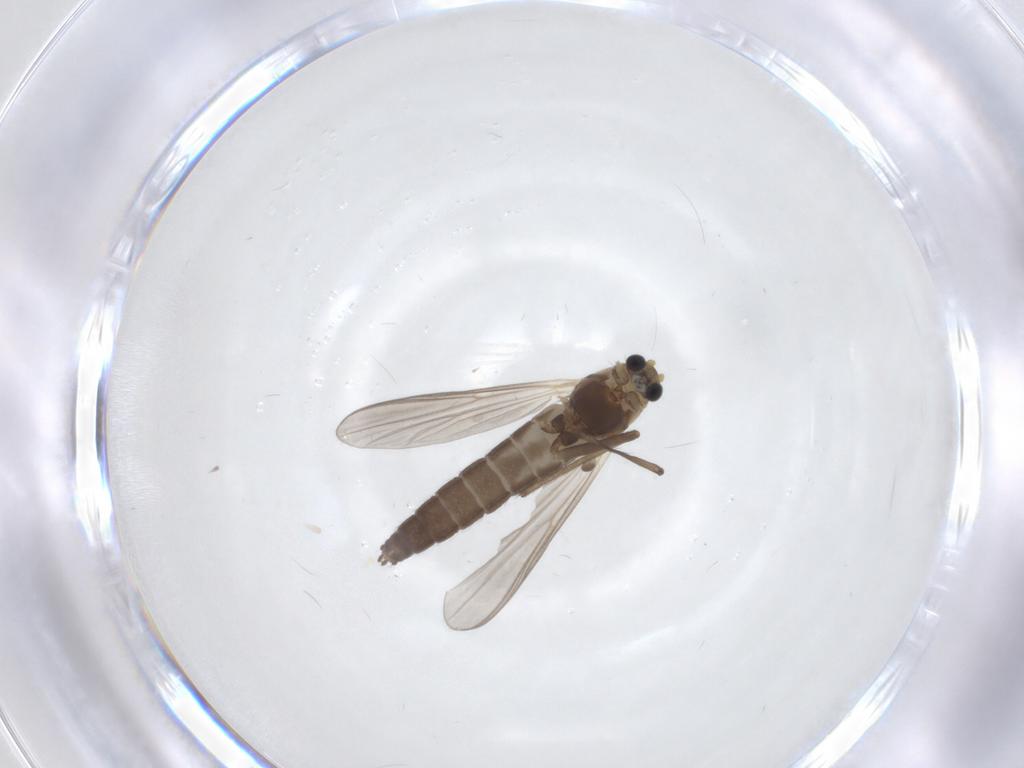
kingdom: Animalia
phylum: Arthropoda
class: Insecta
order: Diptera
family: Chironomidae
